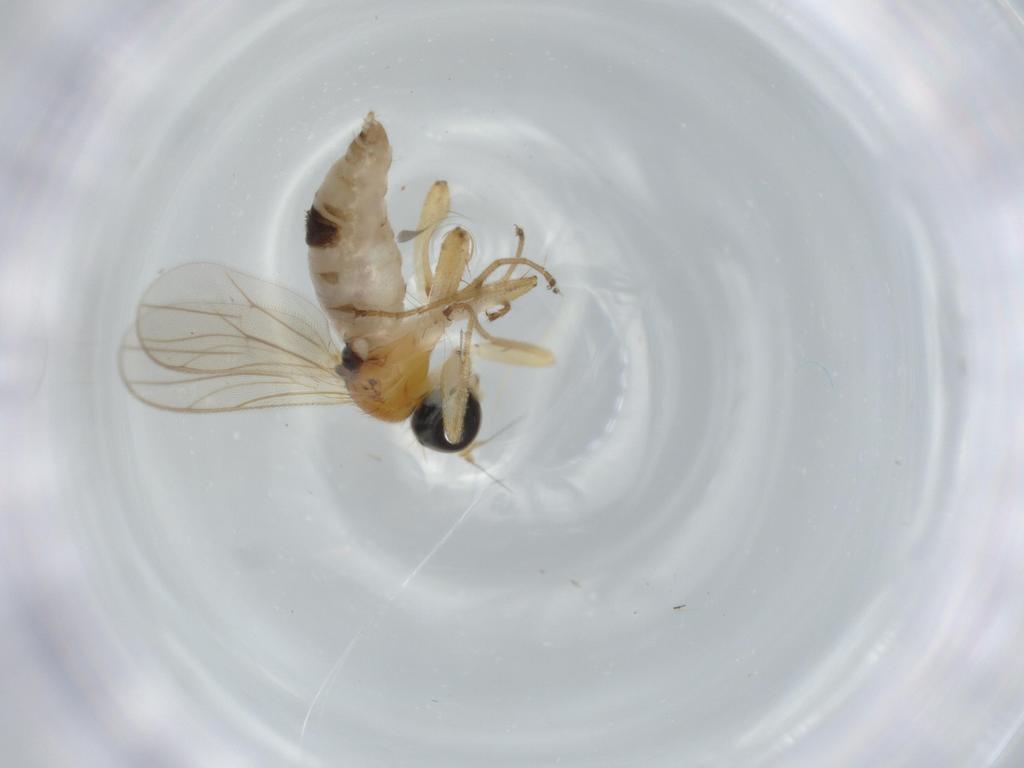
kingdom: Animalia
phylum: Arthropoda
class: Insecta
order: Diptera
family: Hybotidae
